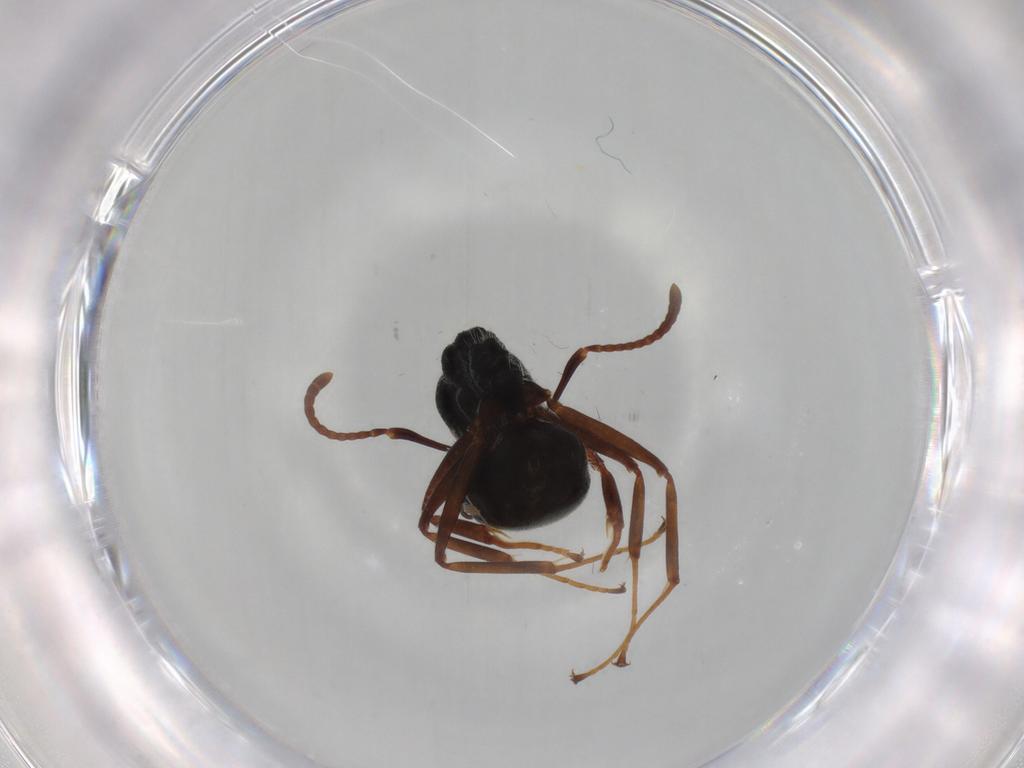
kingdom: Animalia
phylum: Arthropoda
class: Insecta
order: Hymenoptera
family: Formicidae
